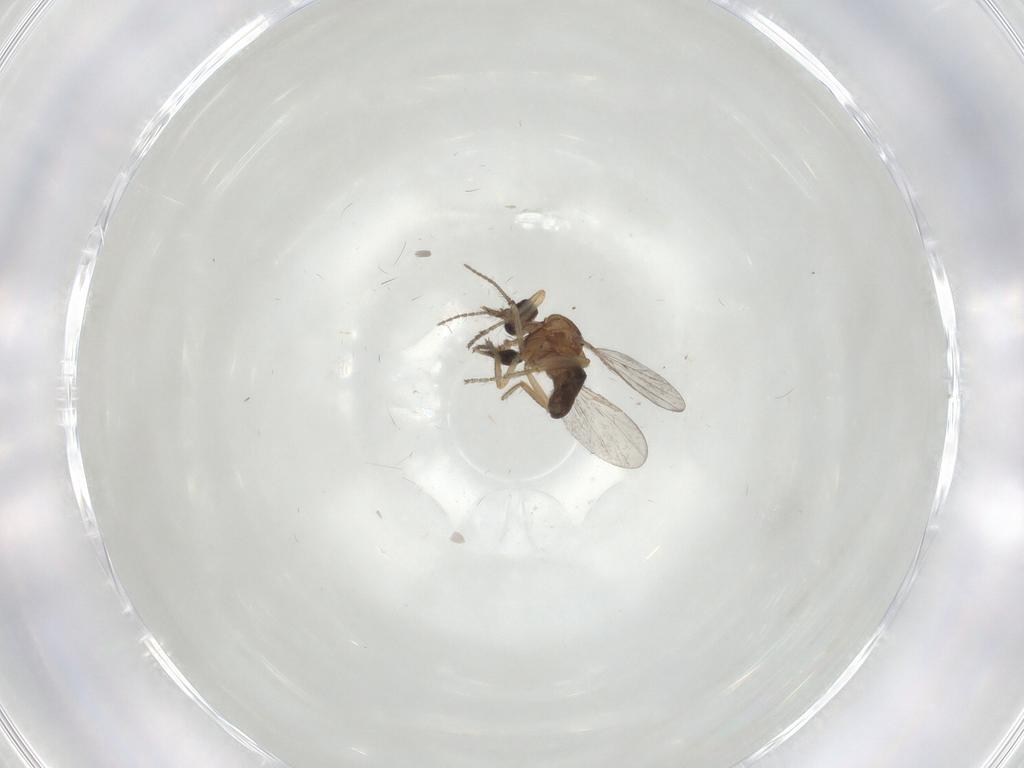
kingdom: Animalia
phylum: Arthropoda
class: Insecta
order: Diptera
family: Ceratopogonidae
